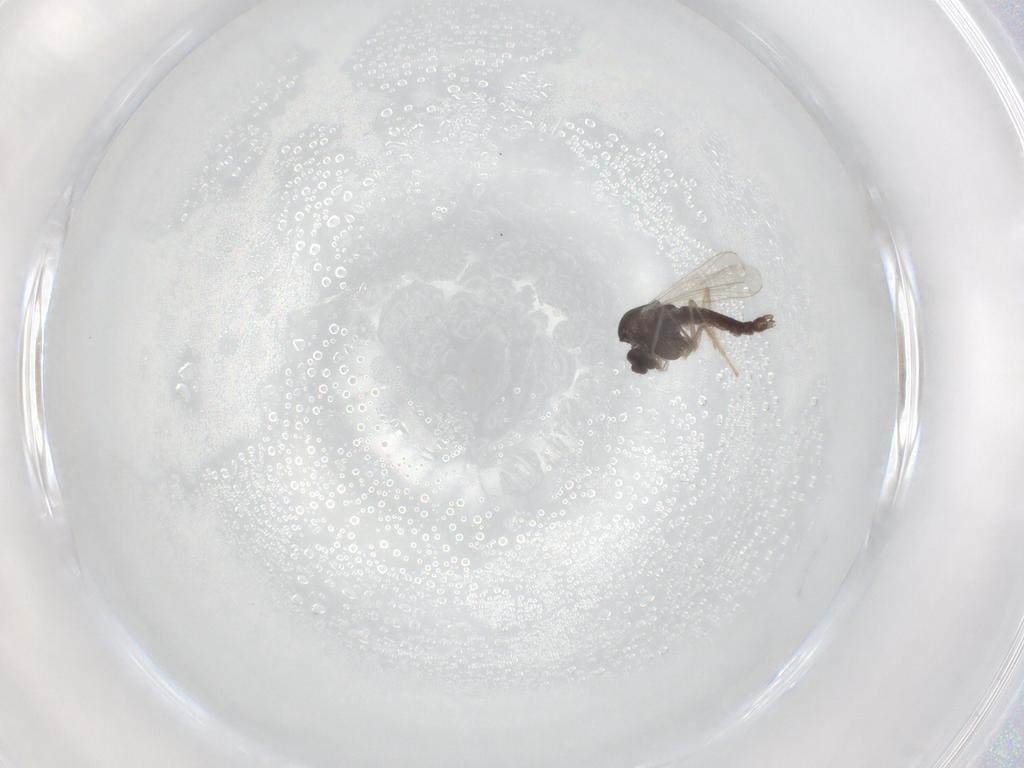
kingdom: Animalia
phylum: Arthropoda
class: Insecta
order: Diptera
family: Chironomidae
